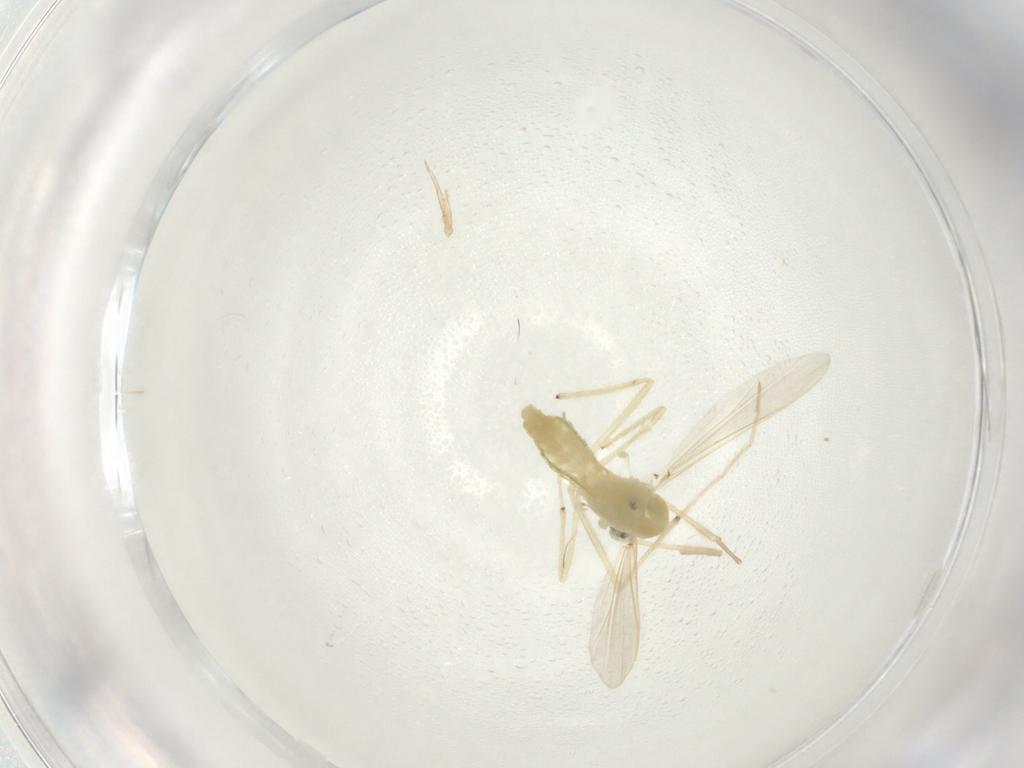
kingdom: Animalia
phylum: Arthropoda
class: Insecta
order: Diptera
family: Chironomidae
